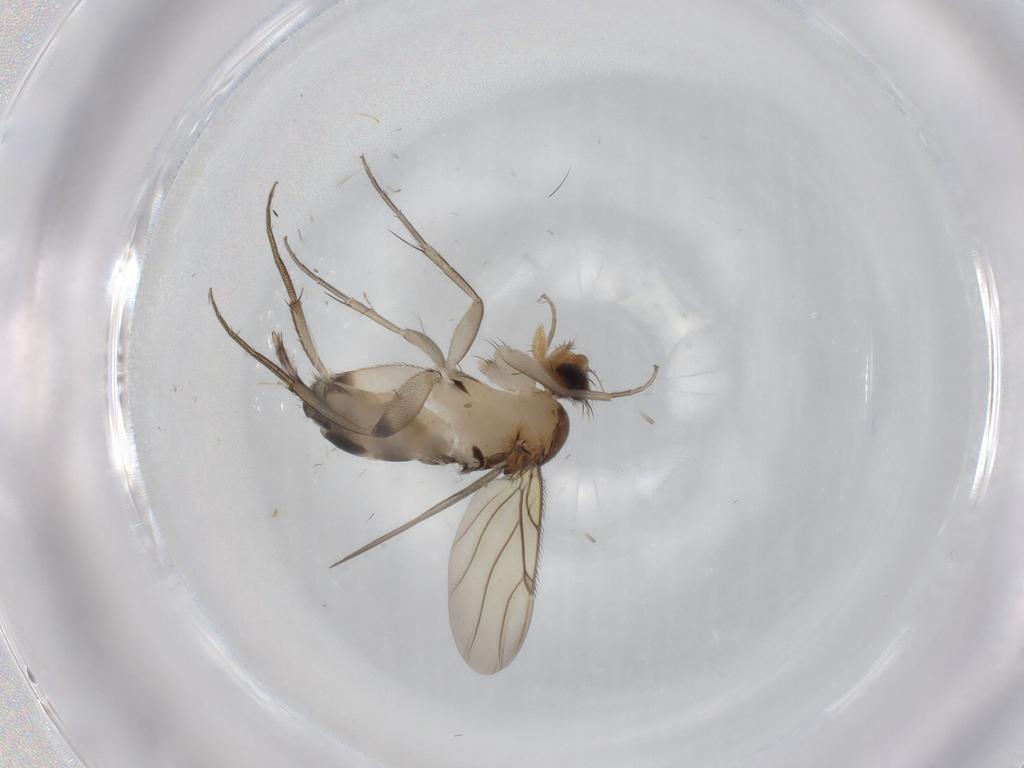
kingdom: Animalia
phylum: Arthropoda
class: Insecta
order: Diptera
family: Phoridae
